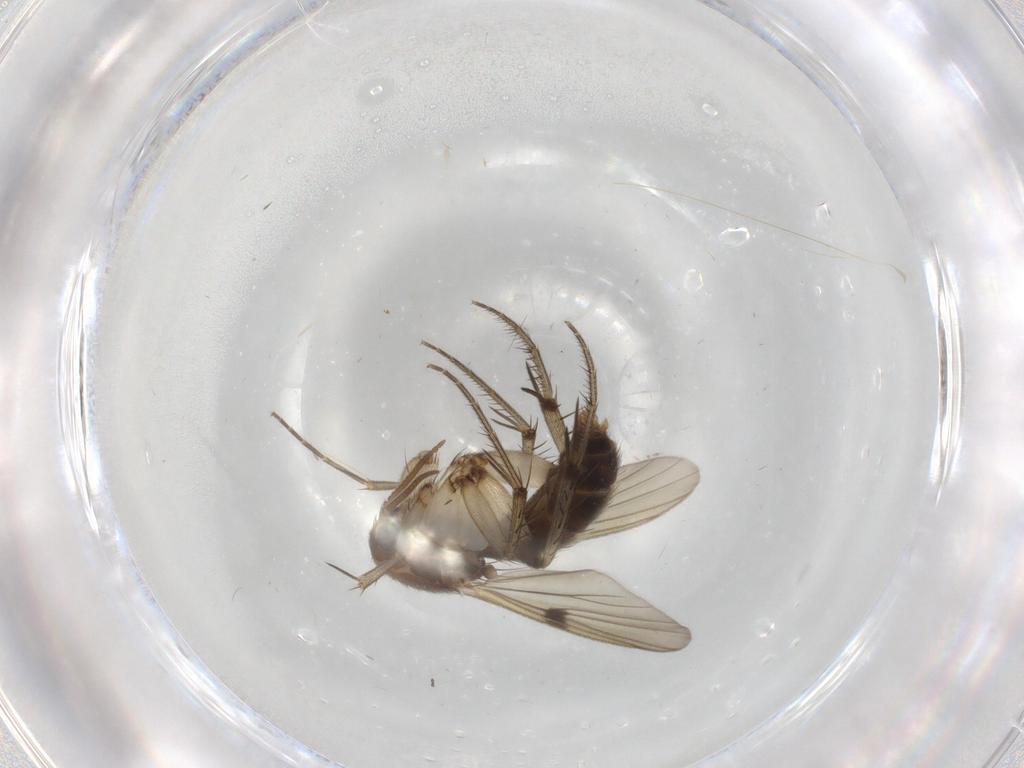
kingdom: Animalia
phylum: Arthropoda
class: Insecta
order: Diptera
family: Mycetophilidae
